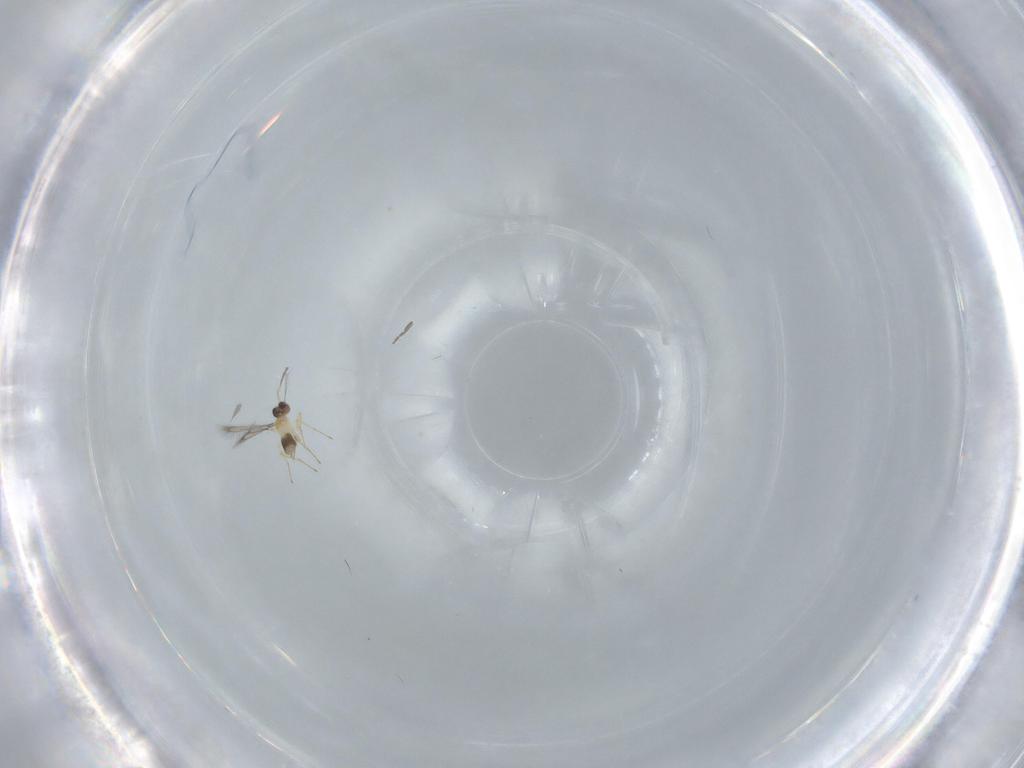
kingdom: Animalia
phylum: Arthropoda
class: Insecta
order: Hymenoptera
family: Mymaridae
